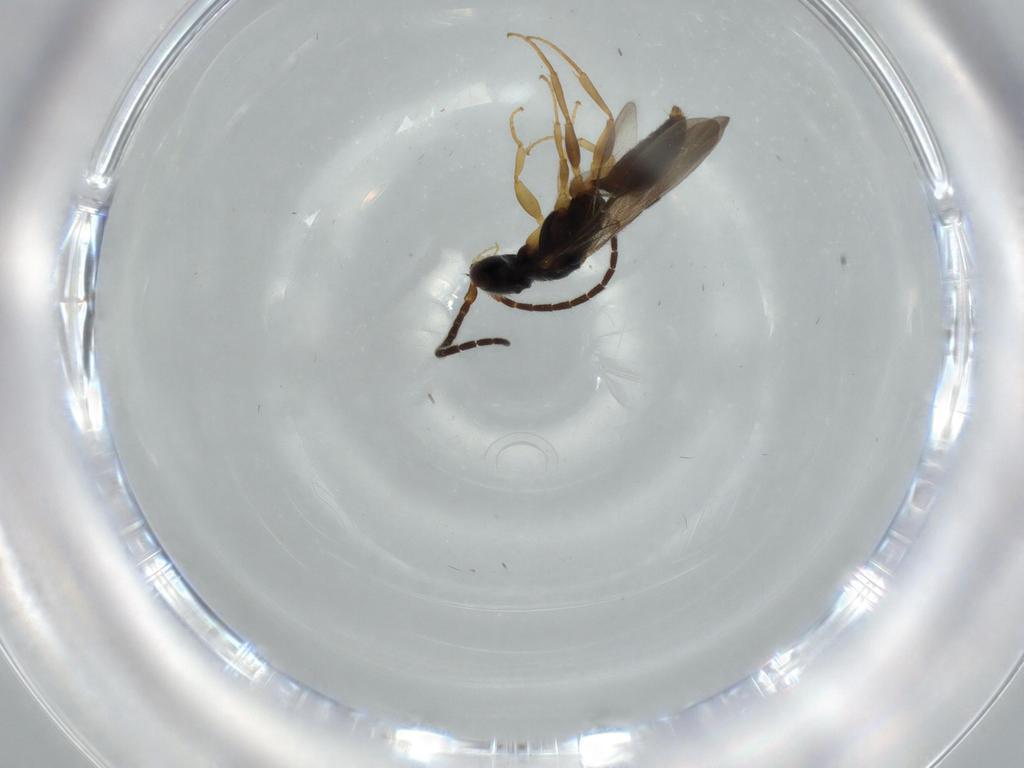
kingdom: Animalia
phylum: Arthropoda
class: Insecta
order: Hymenoptera
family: Bethylidae
